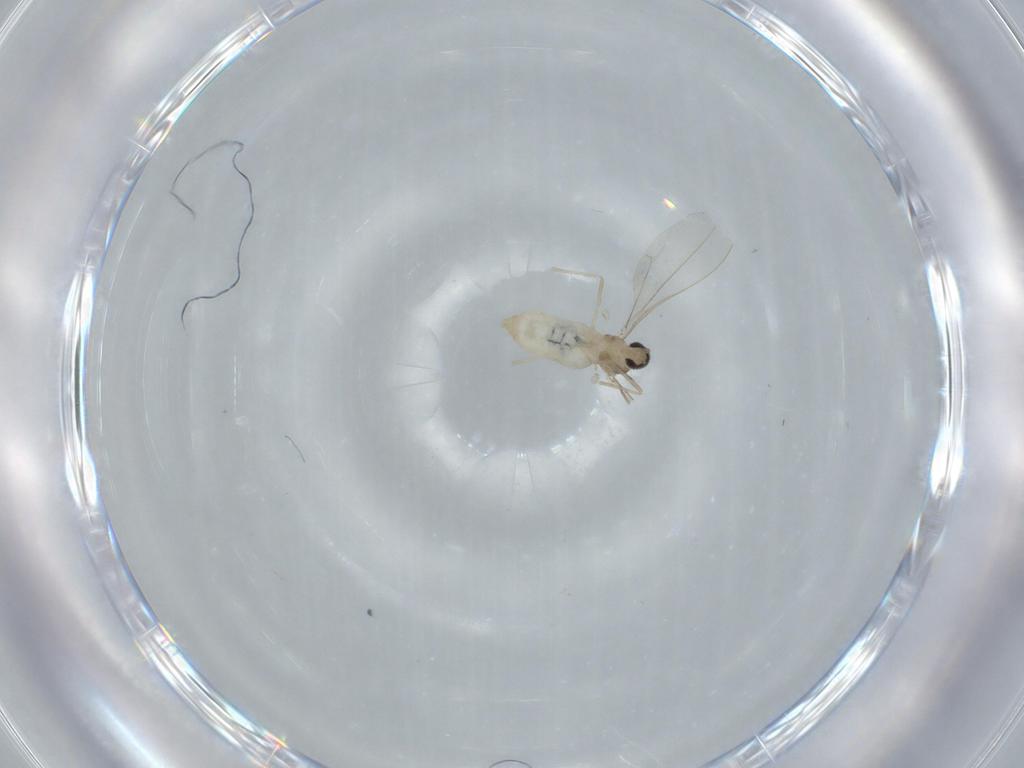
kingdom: Animalia
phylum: Arthropoda
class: Insecta
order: Diptera
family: Cecidomyiidae
